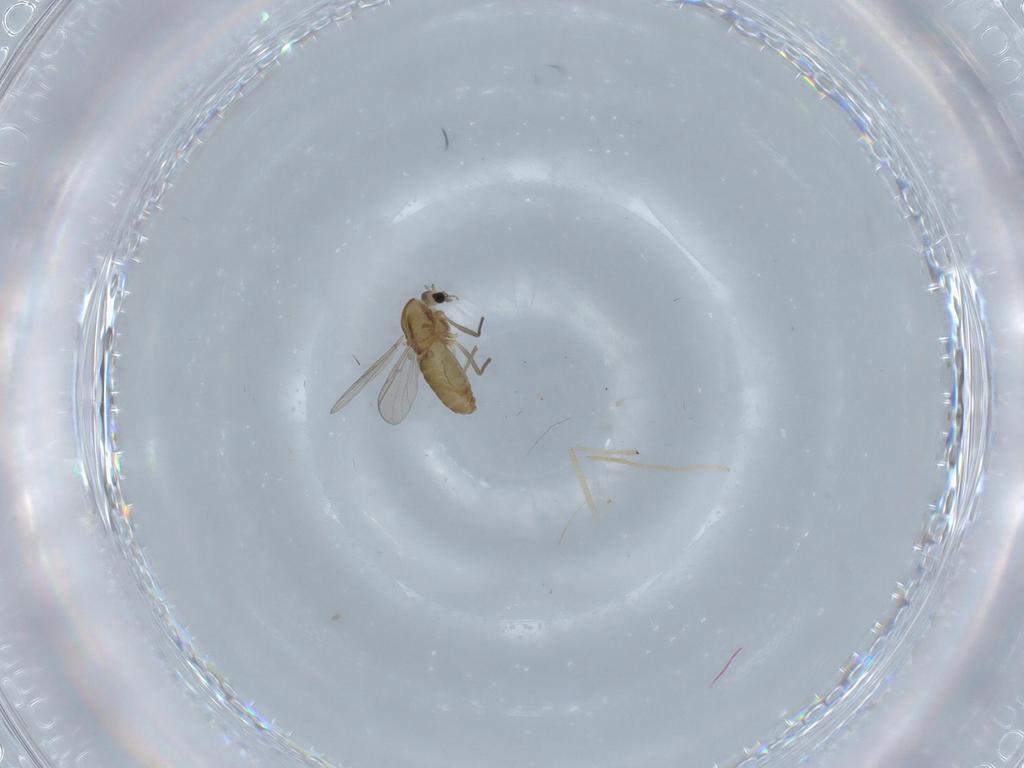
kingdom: Animalia
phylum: Arthropoda
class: Insecta
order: Diptera
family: Cecidomyiidae
